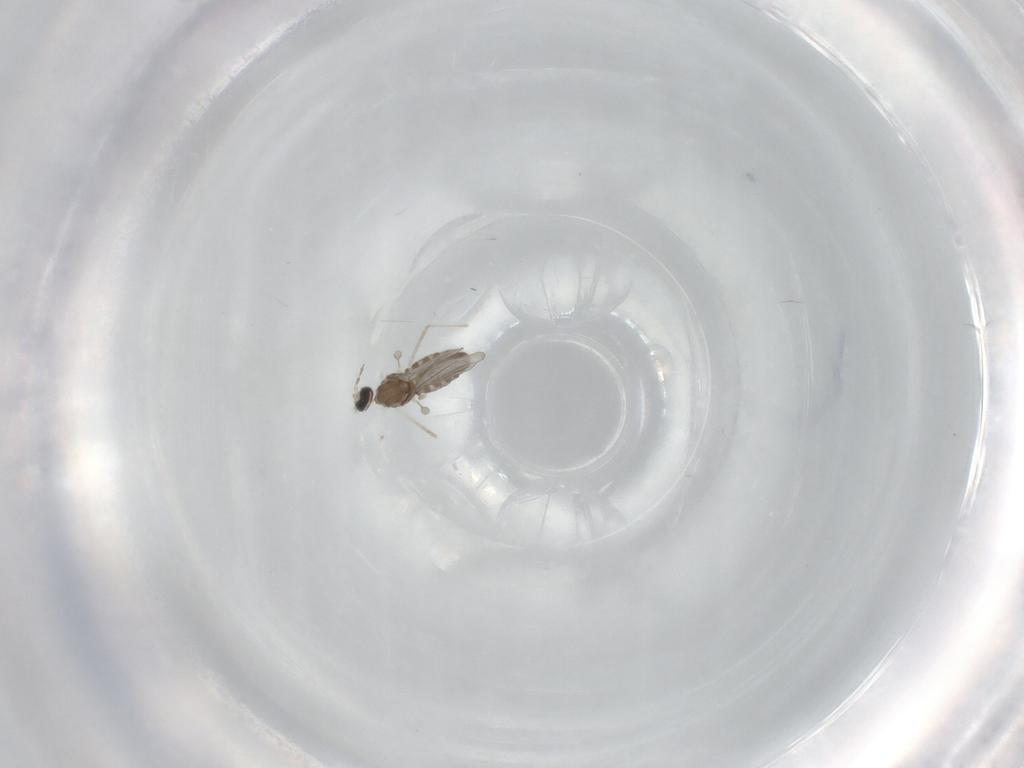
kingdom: Animalia
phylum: Arthropoda
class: Insecta
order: Diptera
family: Cecidomyiidae
